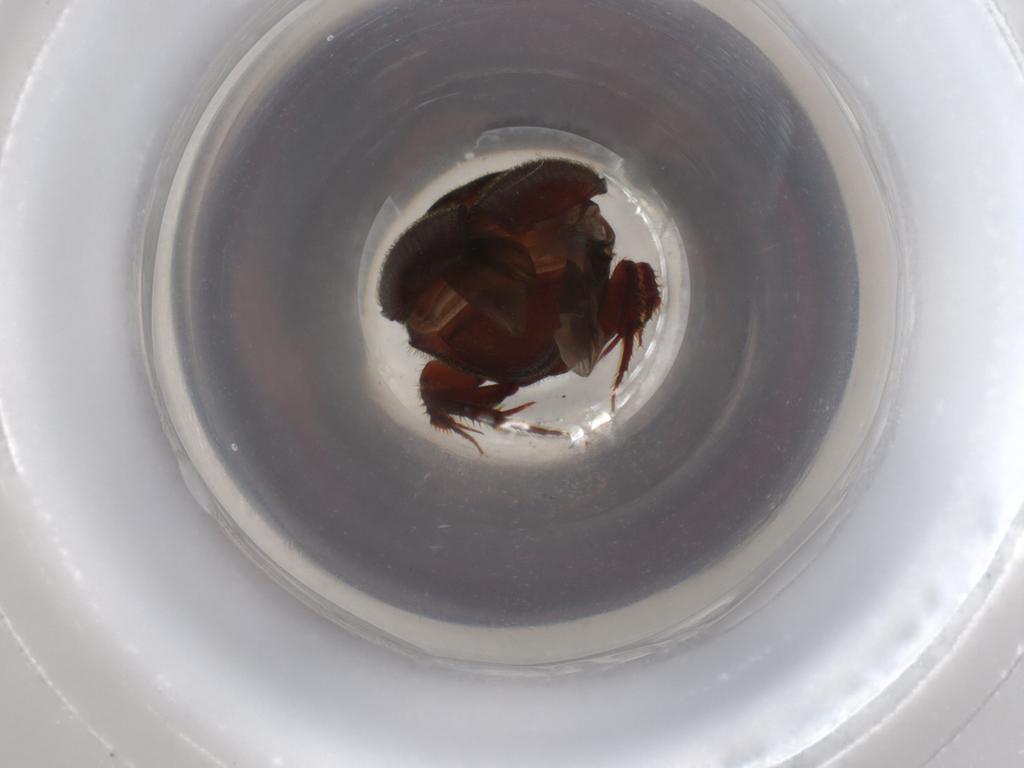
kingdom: Animalia
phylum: Arthropoda
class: Insecta
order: Coleoptera
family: Scarabaeidae
